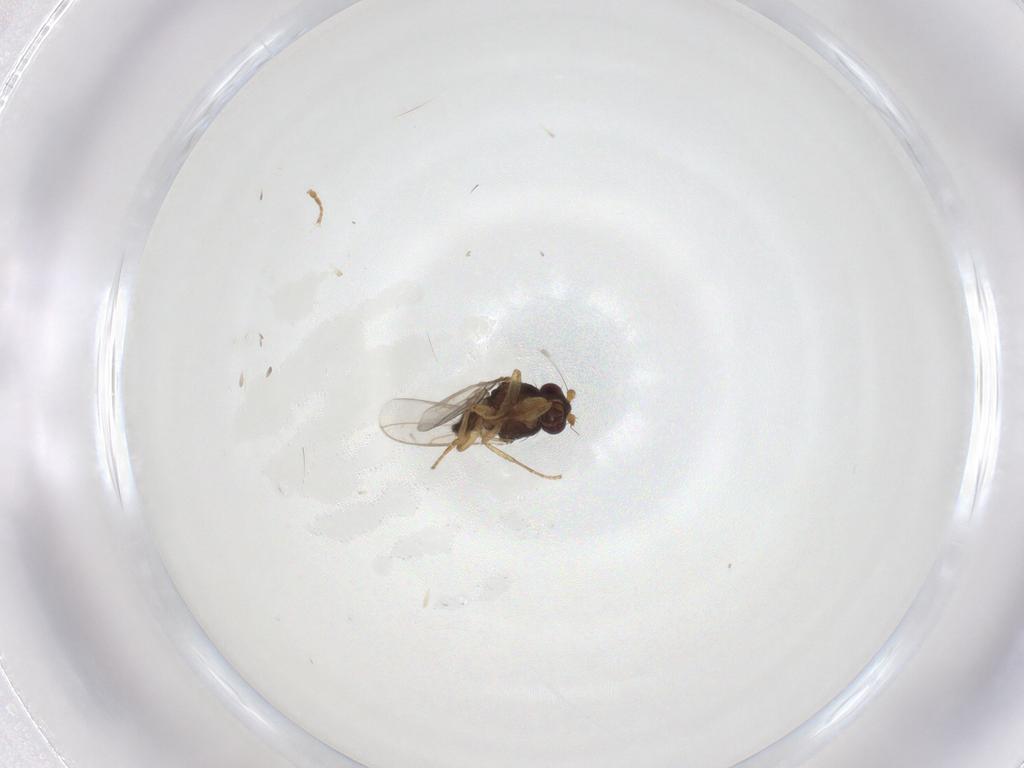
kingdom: Animalia
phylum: Arthropoda
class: Insecta
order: Diptera
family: Sphaeroceridae
